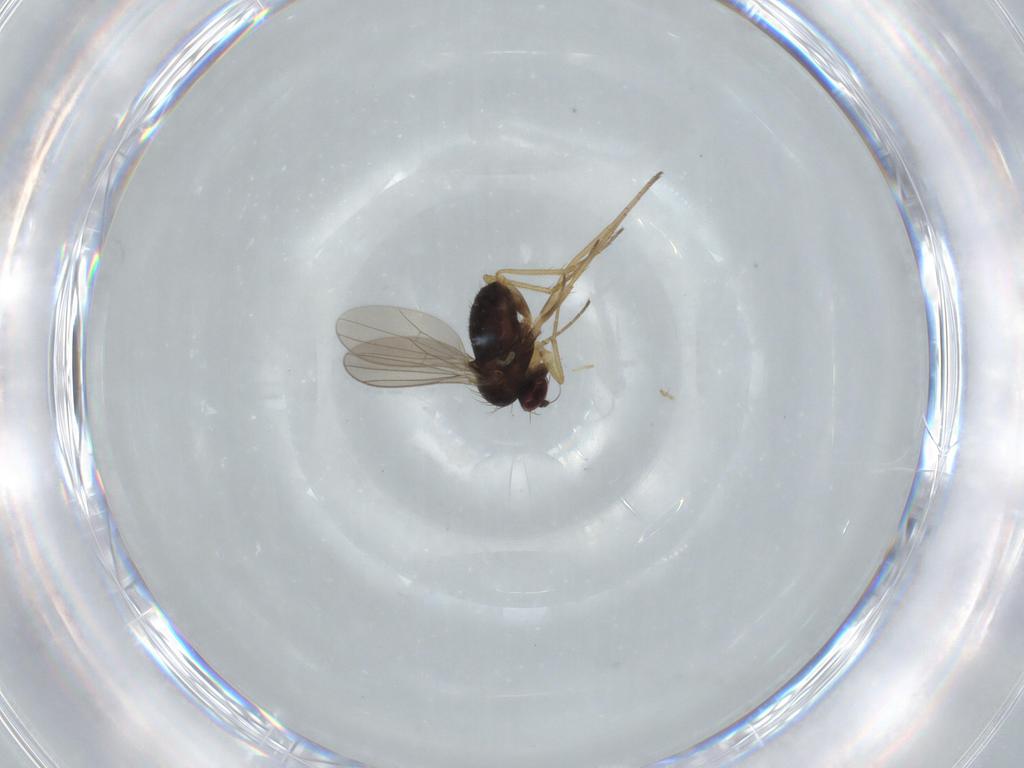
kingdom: Animalia
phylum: Arthropoda
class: Insecta
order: Diptera
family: Dolichopodidae
